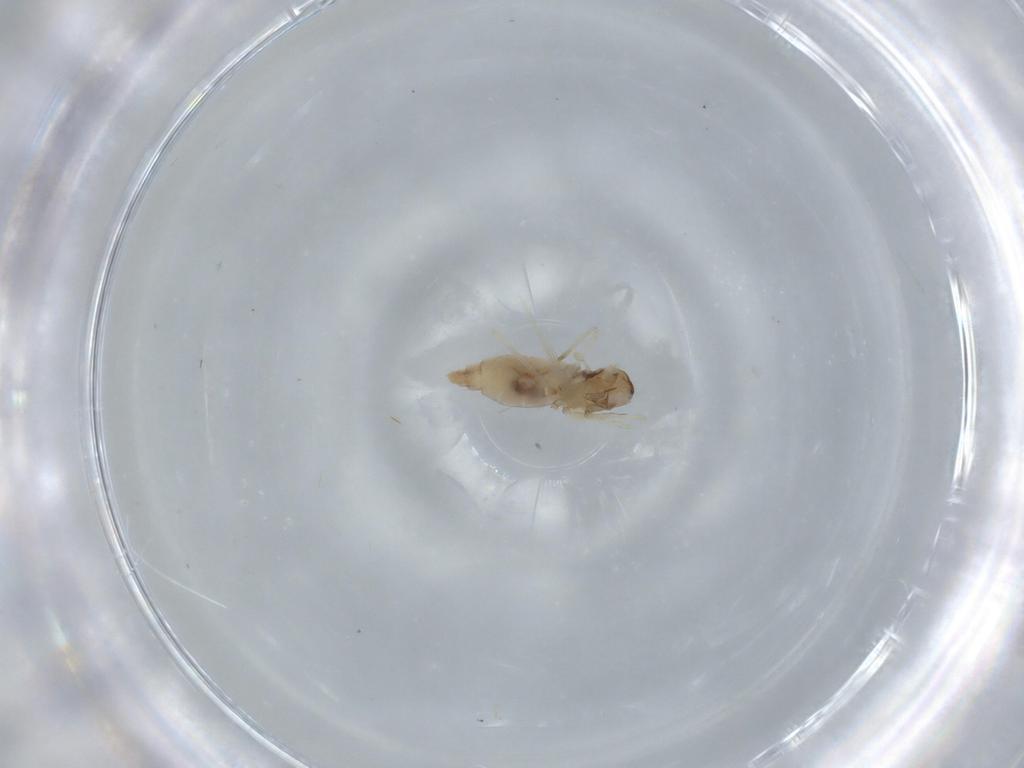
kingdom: Animalia
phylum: Arthropoda
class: Insecta
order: Diptera
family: Cecidomyiidae
